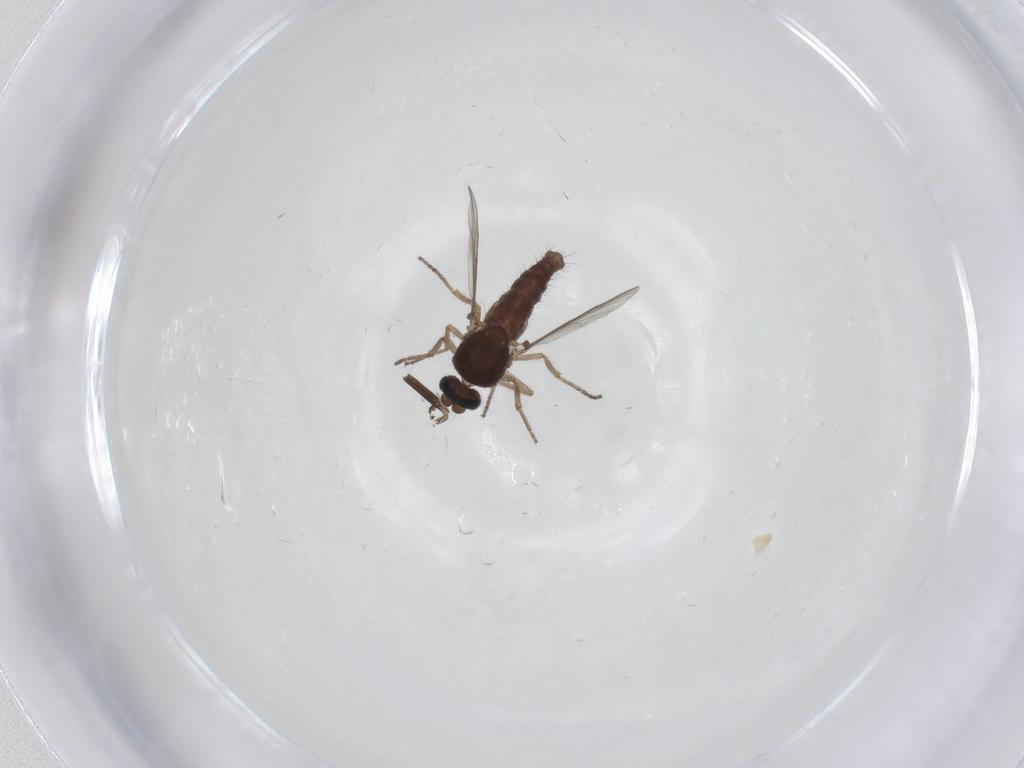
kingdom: Animalia
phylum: Arthropoda
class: Insecta
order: Diptera
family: Ceratopogonidae
